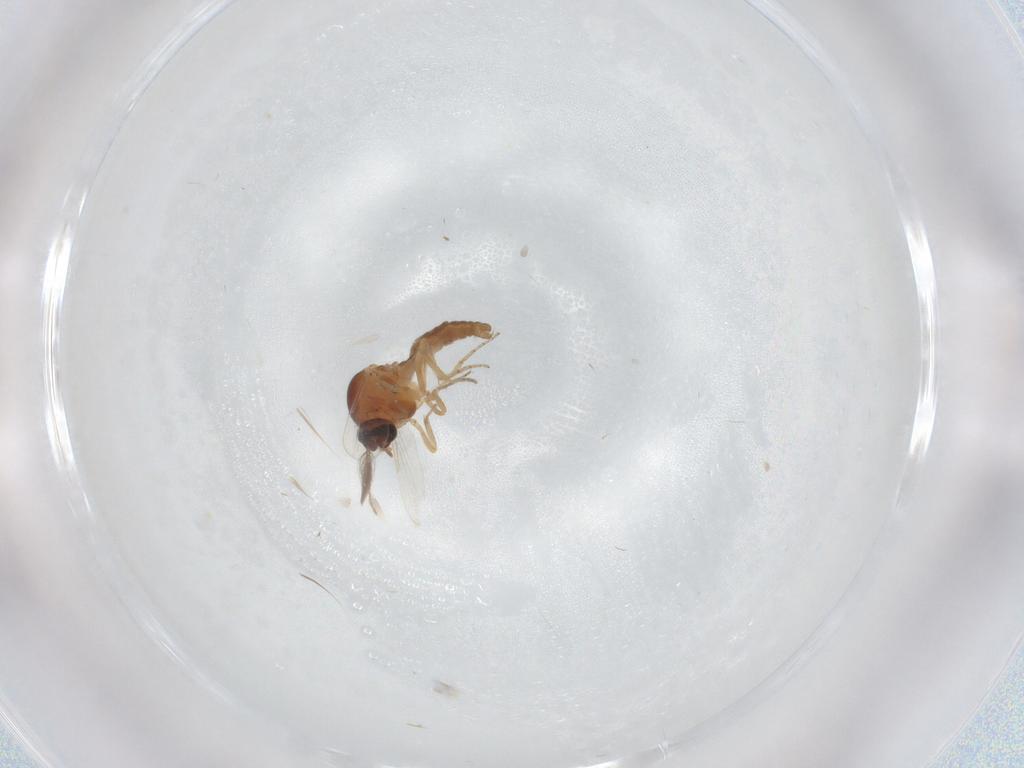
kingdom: Animalia
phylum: Arthropoda
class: Insecta
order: Diptera
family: Ceratopogonidae
